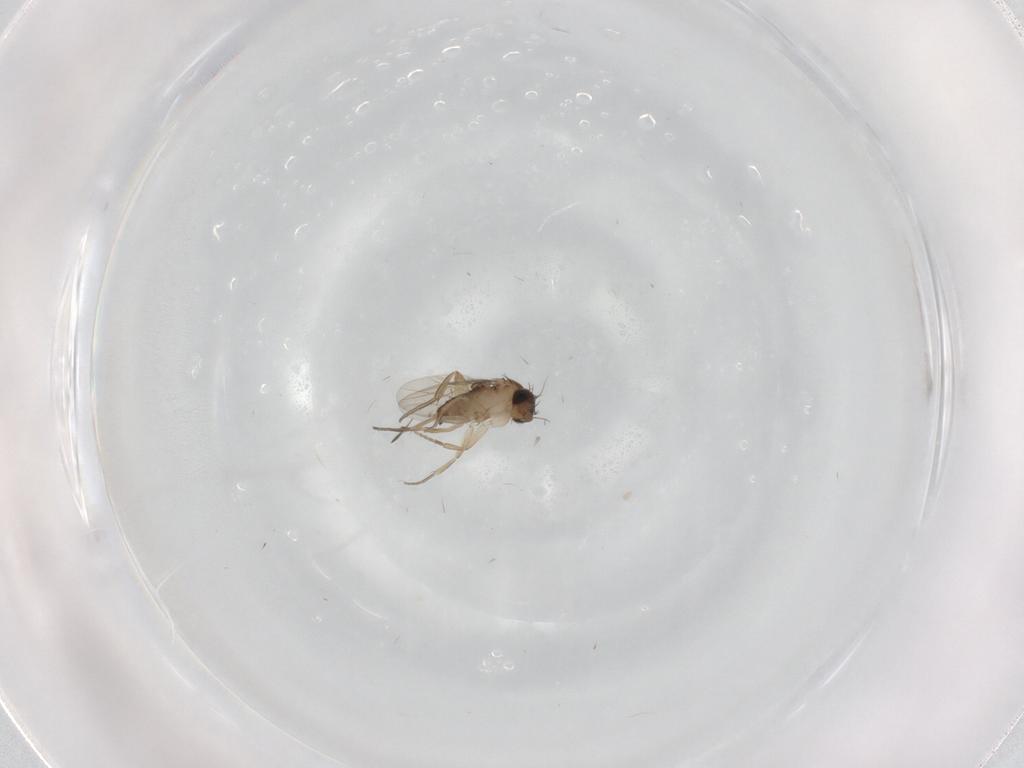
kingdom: Animalia
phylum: Arthropoda
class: Insecta
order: Diptera
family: Phoridae
